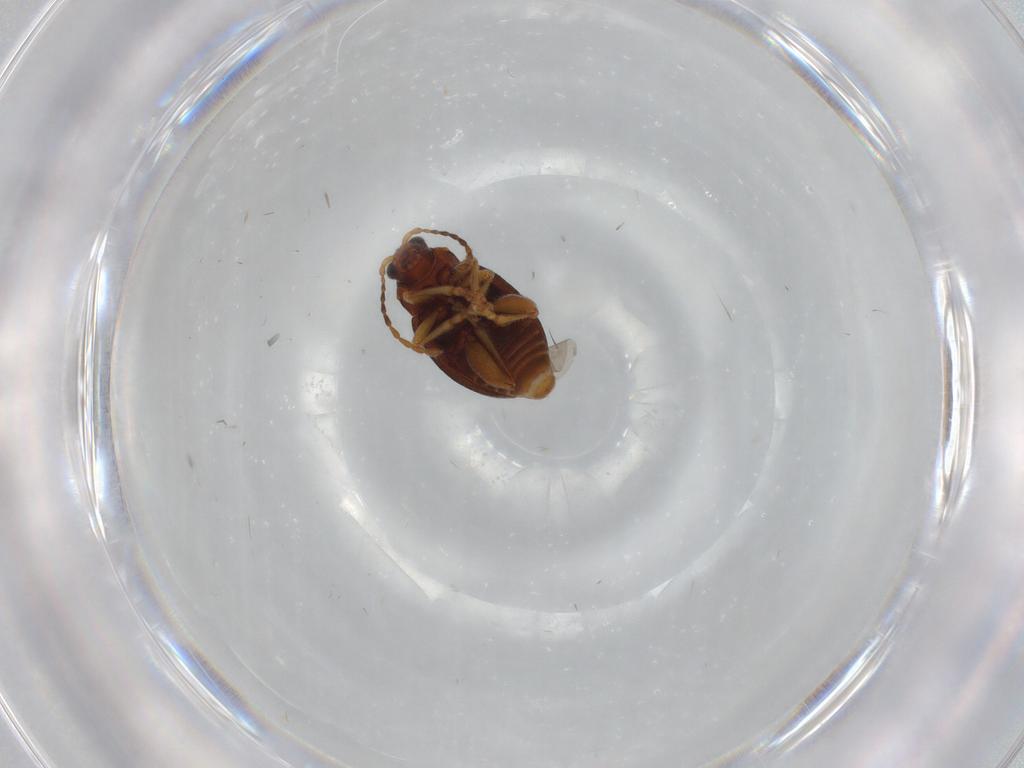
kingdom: Animalia
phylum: Arthropoda
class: Insecta
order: Coleoptera
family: Chrysomelidae
